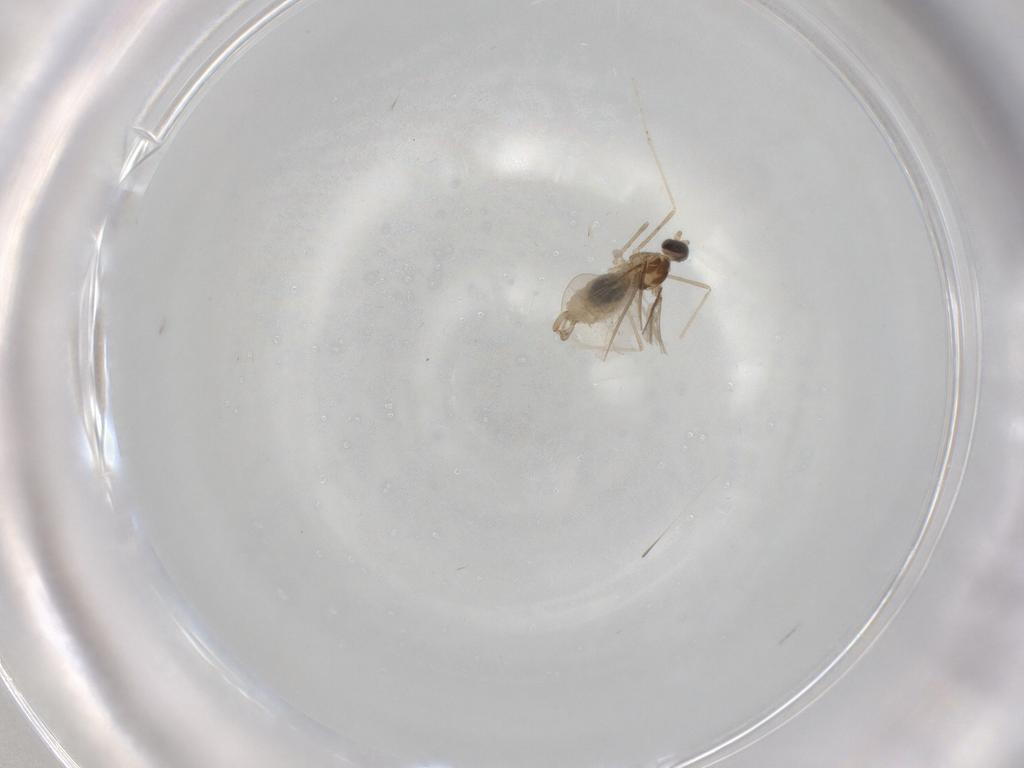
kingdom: Animalia
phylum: Arthropoda
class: Insecta
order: Diptera
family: Cecidomyiidae
